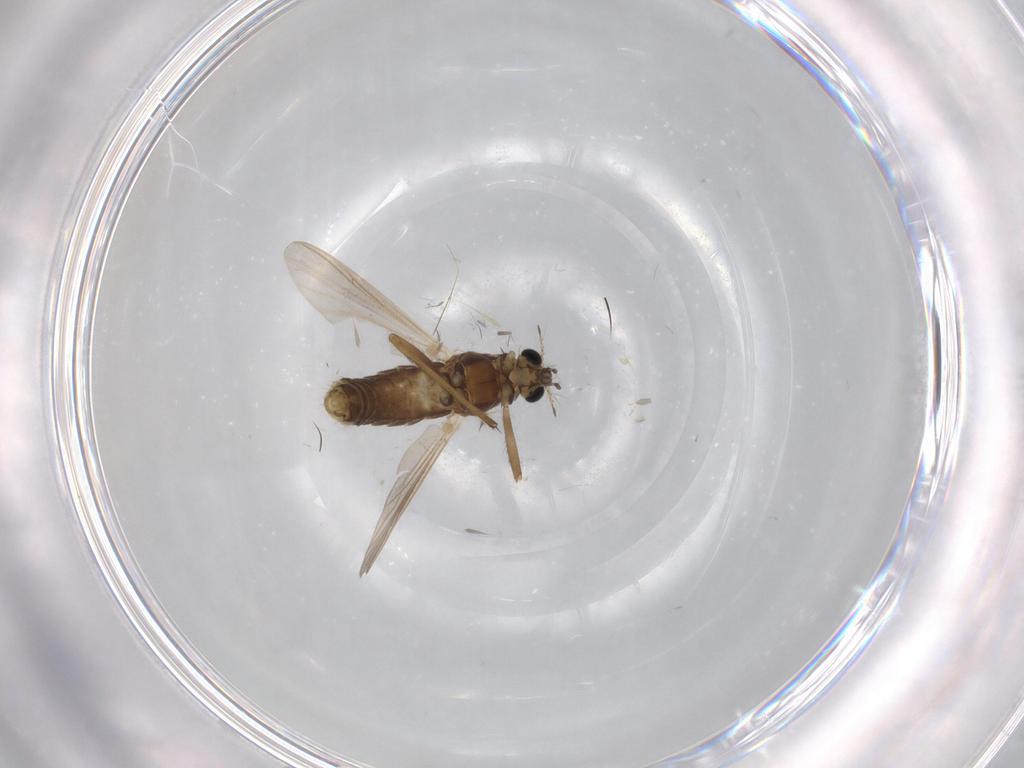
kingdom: Animalia
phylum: Arthropoda
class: Insecta
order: Diptera
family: Chironomidae
